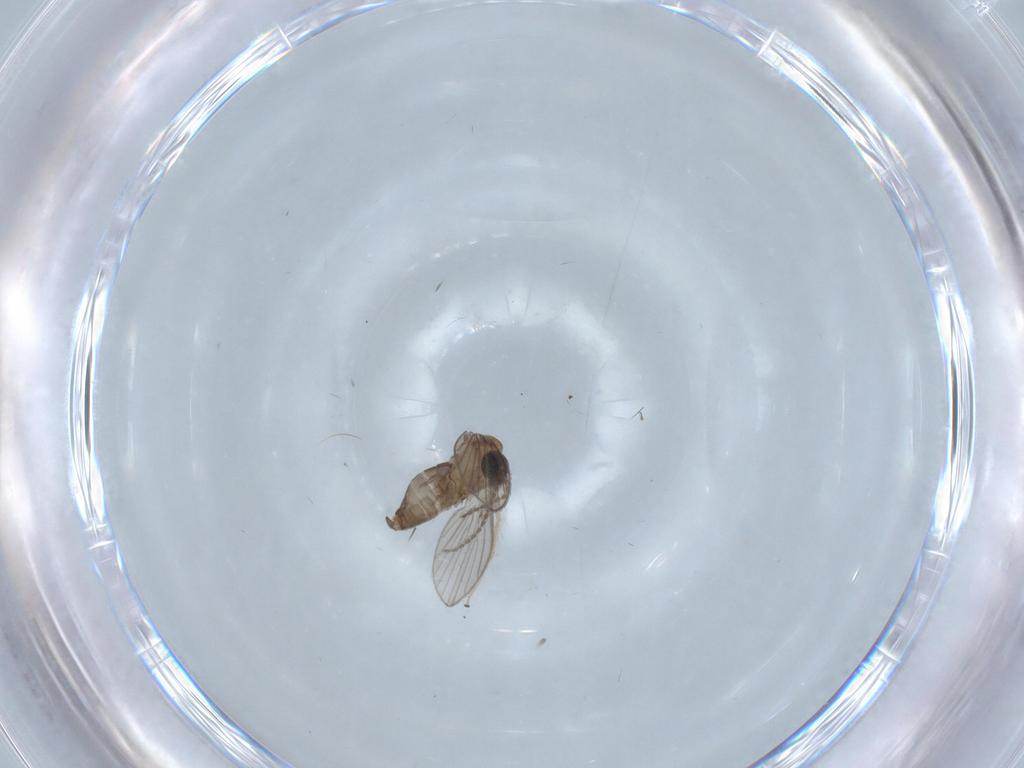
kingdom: Animalia
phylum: Arthropoda
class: Insecta
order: Diptera
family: Psychodidae
